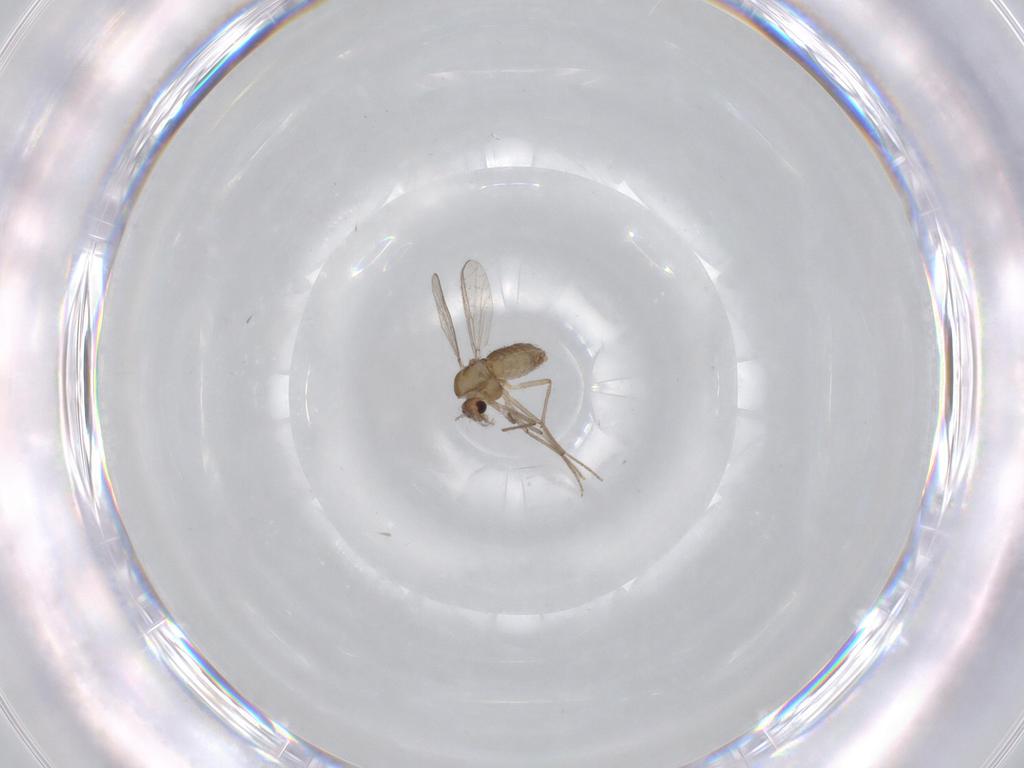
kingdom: Animalia
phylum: Arthropoda
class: Insecta
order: Diptera
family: Chironomidae
